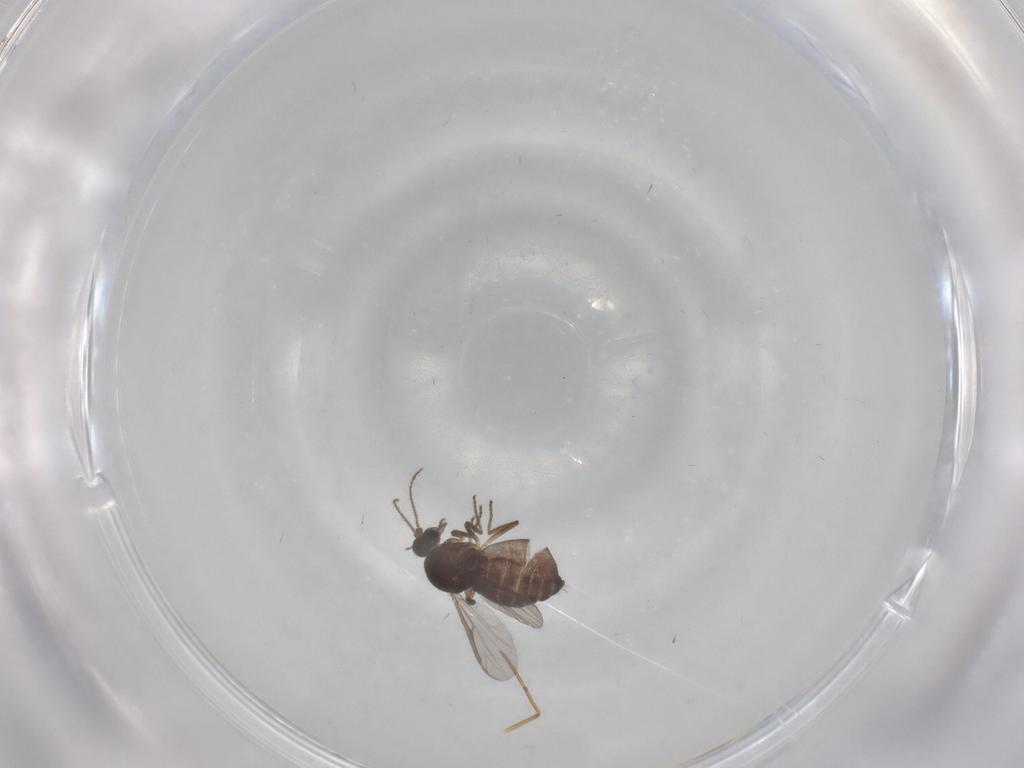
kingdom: Animalia
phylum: Arthropoda
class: Insecta
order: Diptera
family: Ceratopogonidae
